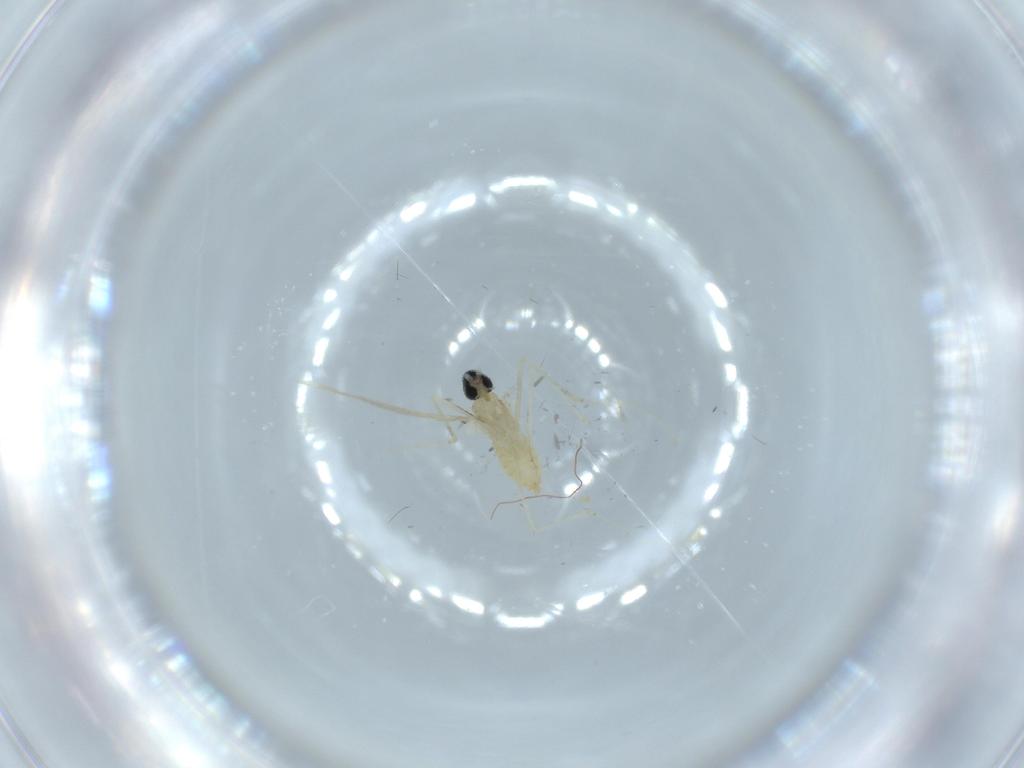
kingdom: Animalia
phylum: Arthropoda
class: Insecta
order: Diptera
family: Cecidomyiidae
